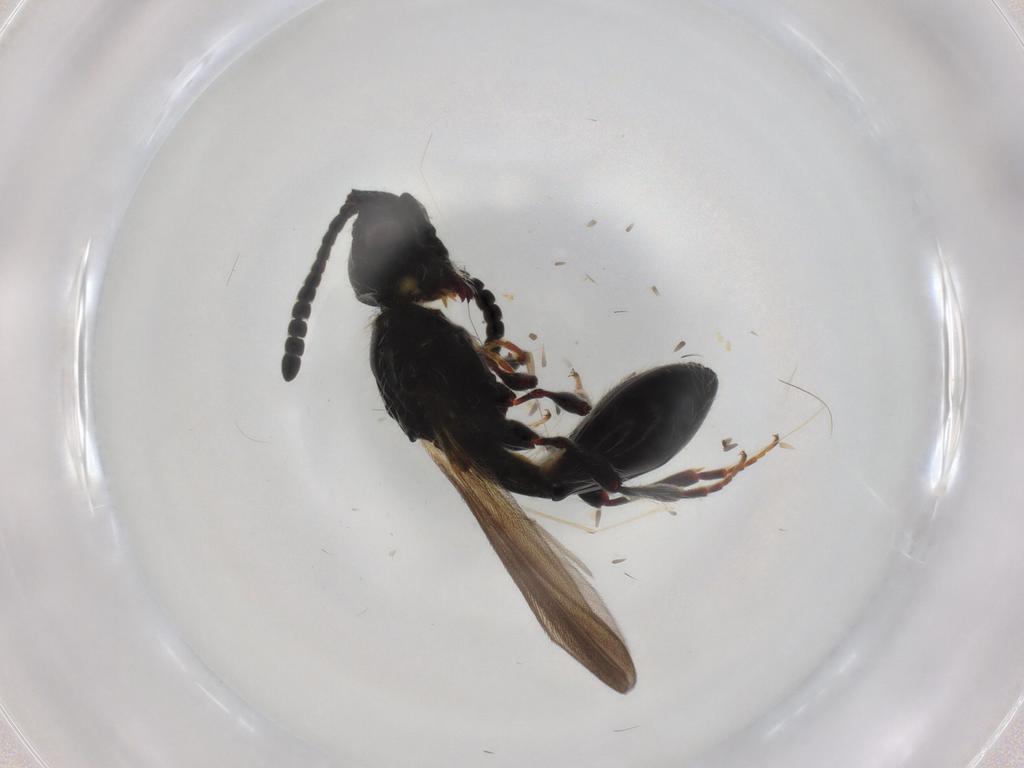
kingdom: Animalia
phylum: Arthropoda
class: Insecta
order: Hymenoptera
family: Diapriidae
